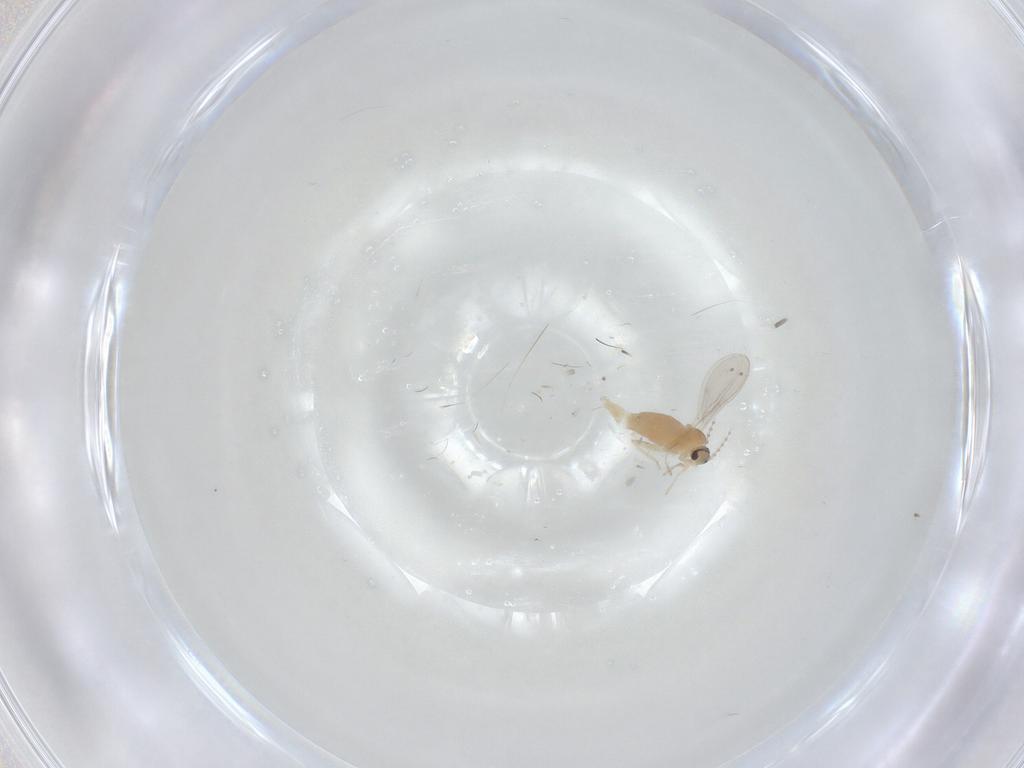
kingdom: Animalia
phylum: Arthropoda
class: Insecta
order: Diptera
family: Cecidomyiidae
